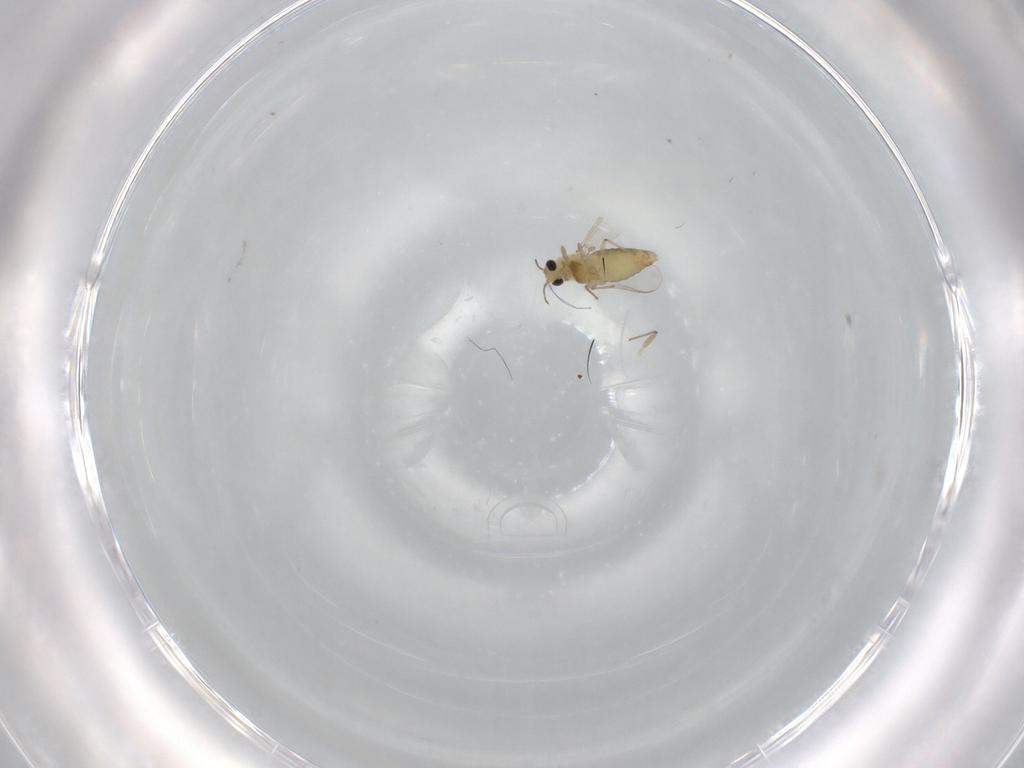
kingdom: Animalia
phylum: Arthropoda
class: Insecta
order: Diptera
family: Chironomidae
